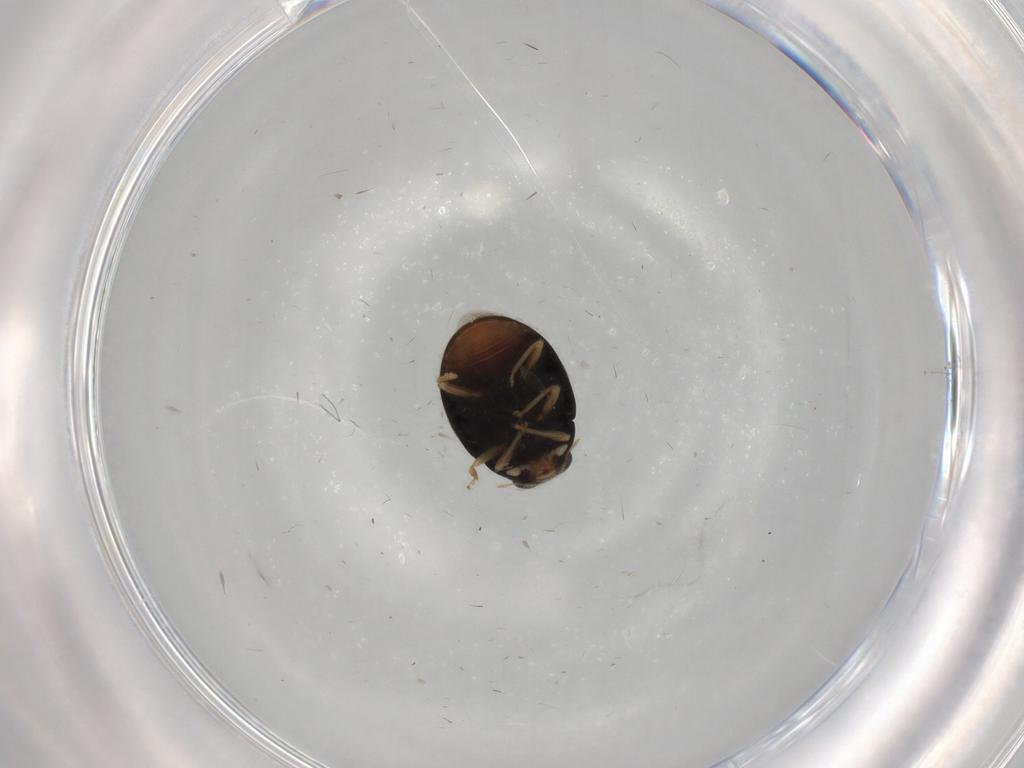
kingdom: Animalia
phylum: Arthropoda
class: Insecta
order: Coleoptera
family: Coccinellidae
